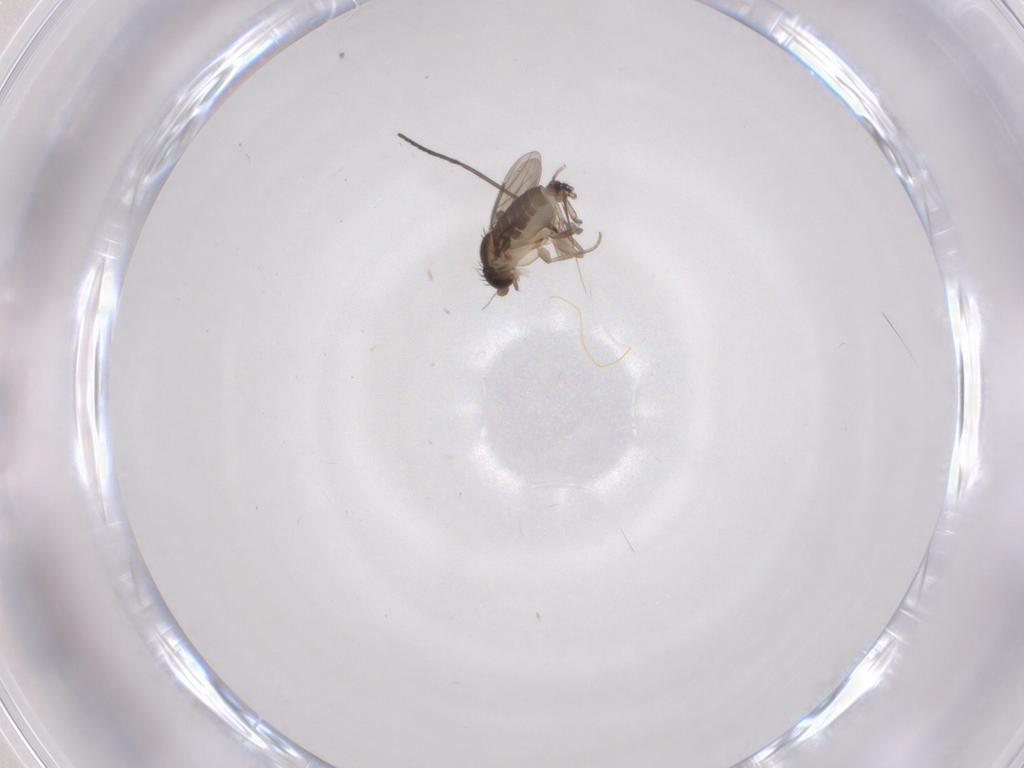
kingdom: Animalia
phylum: Arthropoda
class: Insecta
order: Diptera
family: Sciaridae
